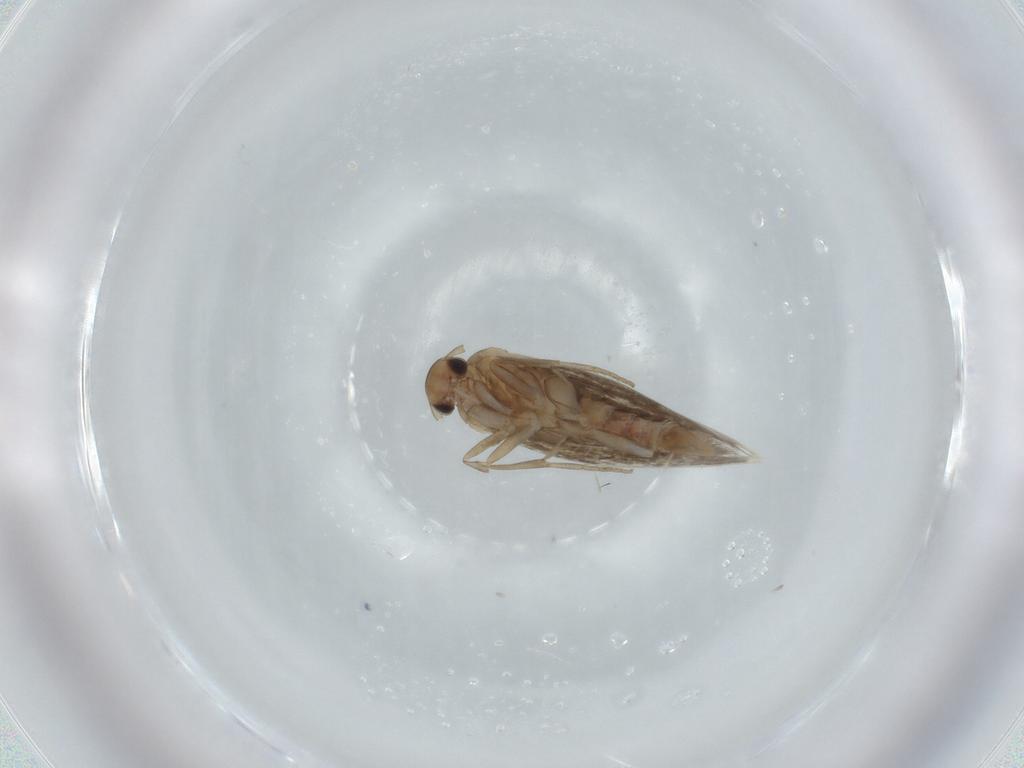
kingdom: Animalia
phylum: Arthropoda
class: Insecta
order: Lepidoptera
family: Elachistidae
